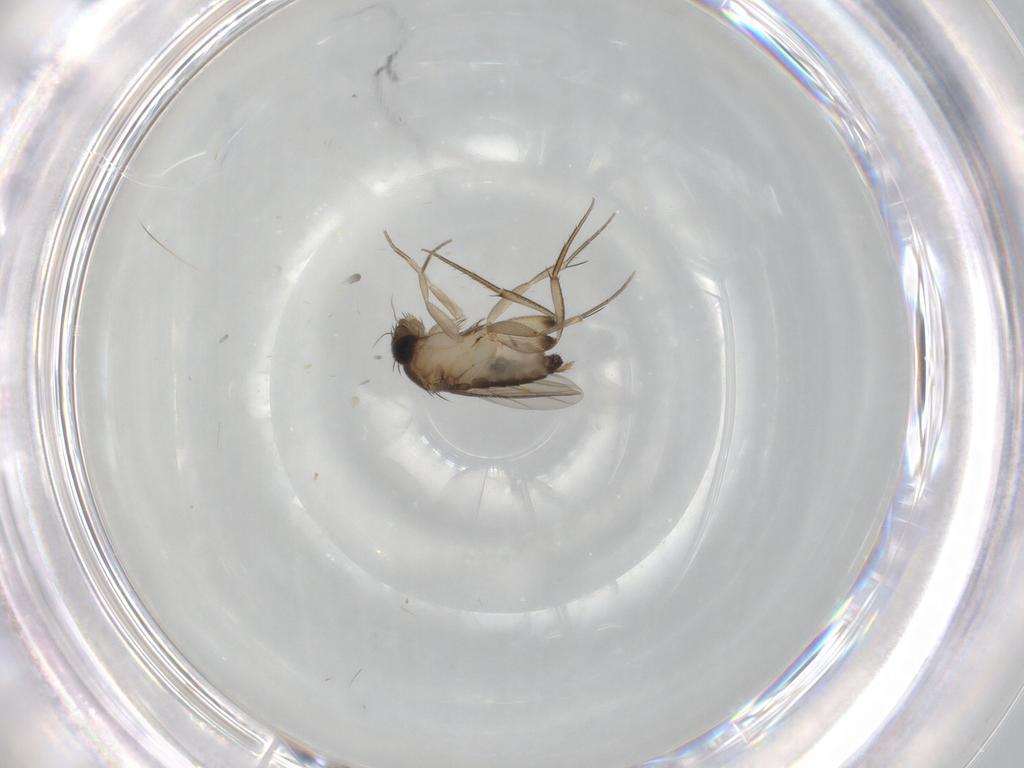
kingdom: Animalia
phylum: Arthropoda
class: Insecta
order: Diptera
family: Phoridae
